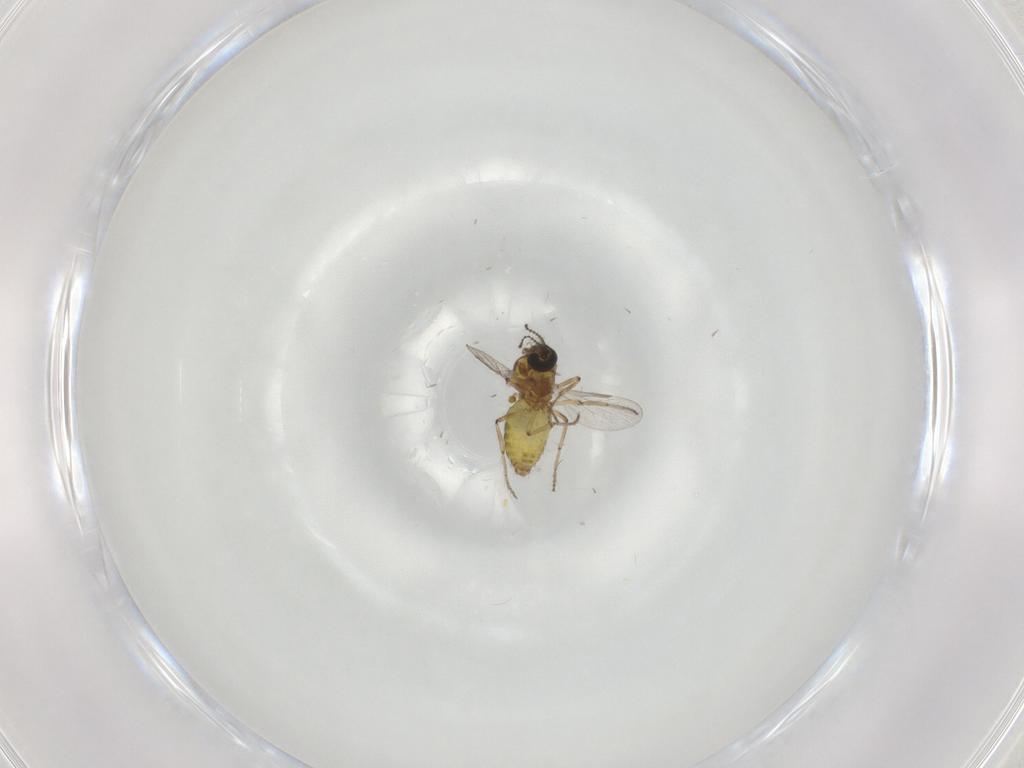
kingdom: Animalia
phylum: Arthropoda
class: Insecta
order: Diptera
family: Ceratopogonidae
